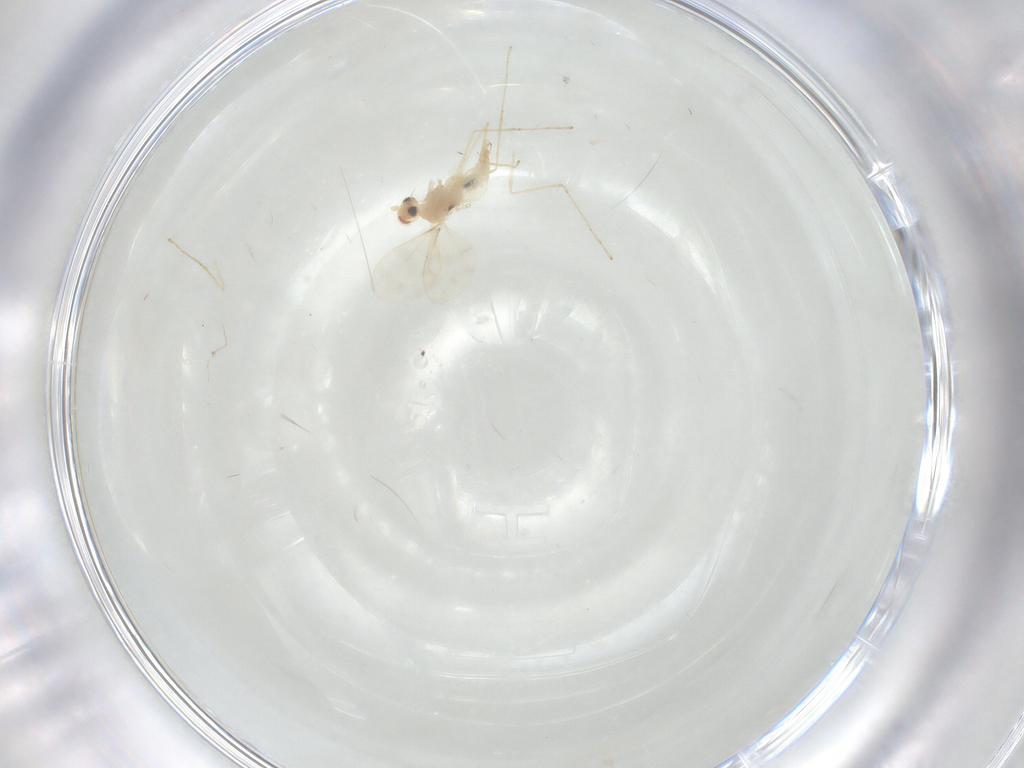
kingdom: Animalia
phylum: Arthropoda
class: Insecta
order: Diptera
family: Cecidomyiidae
